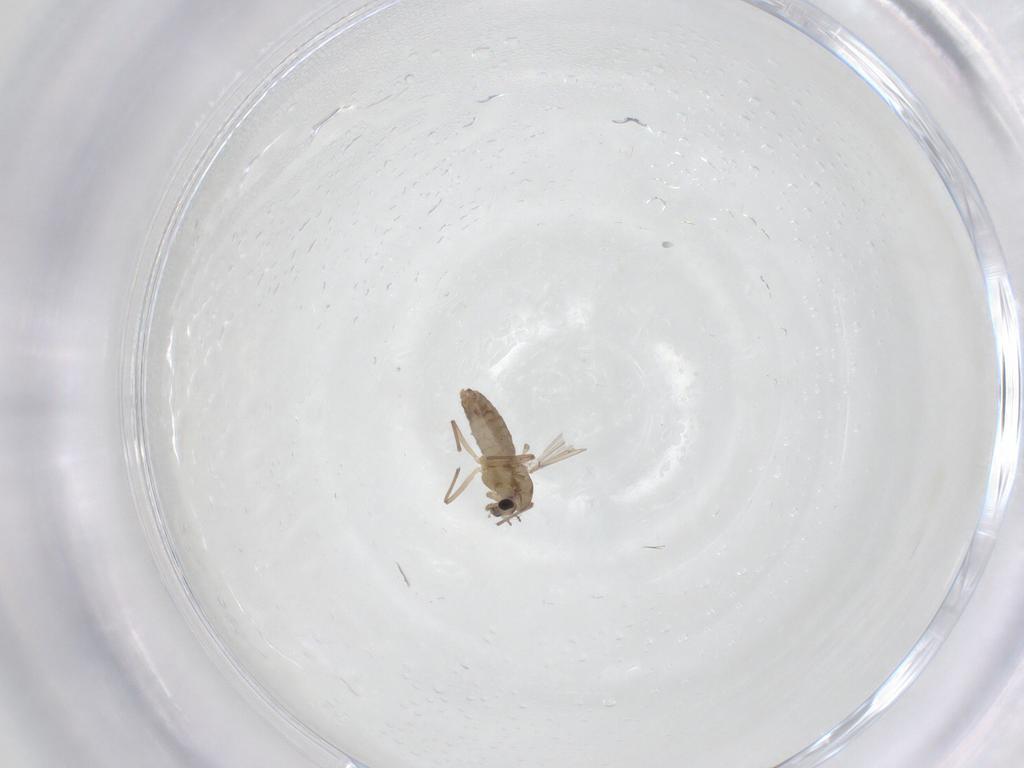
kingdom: Animalia
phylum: Arthropoda
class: Insecta
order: Diptera
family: Chironomidae
